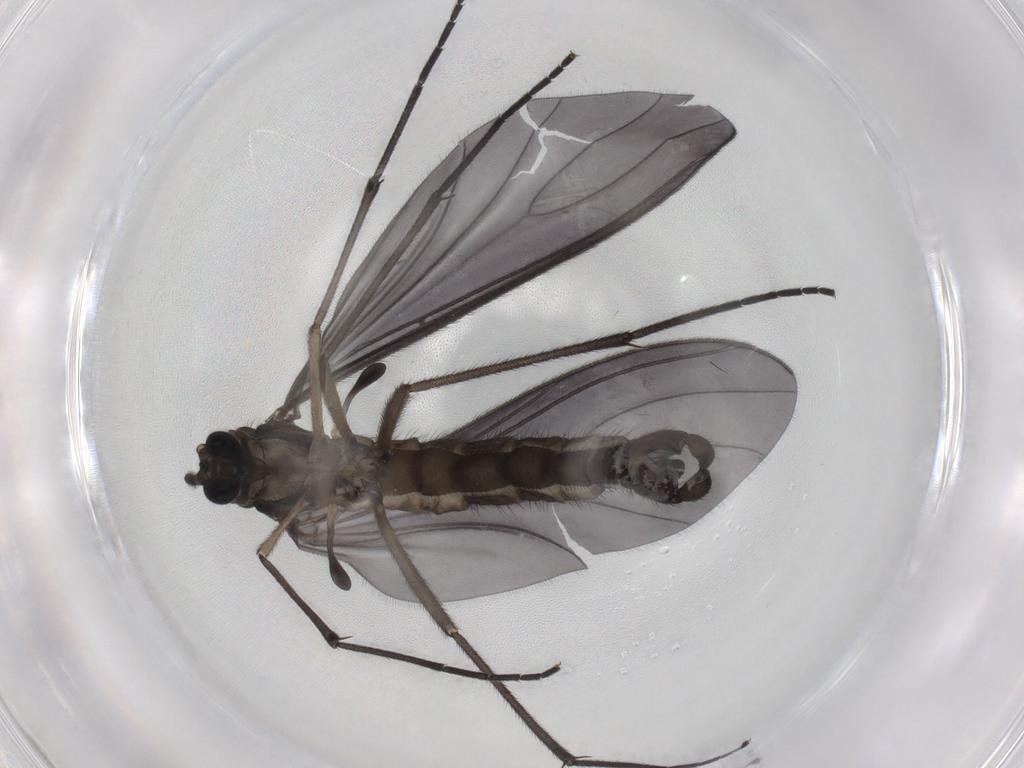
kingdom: Animalia
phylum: Arthropoda
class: Insecta
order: Diptera
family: Sciaridae
